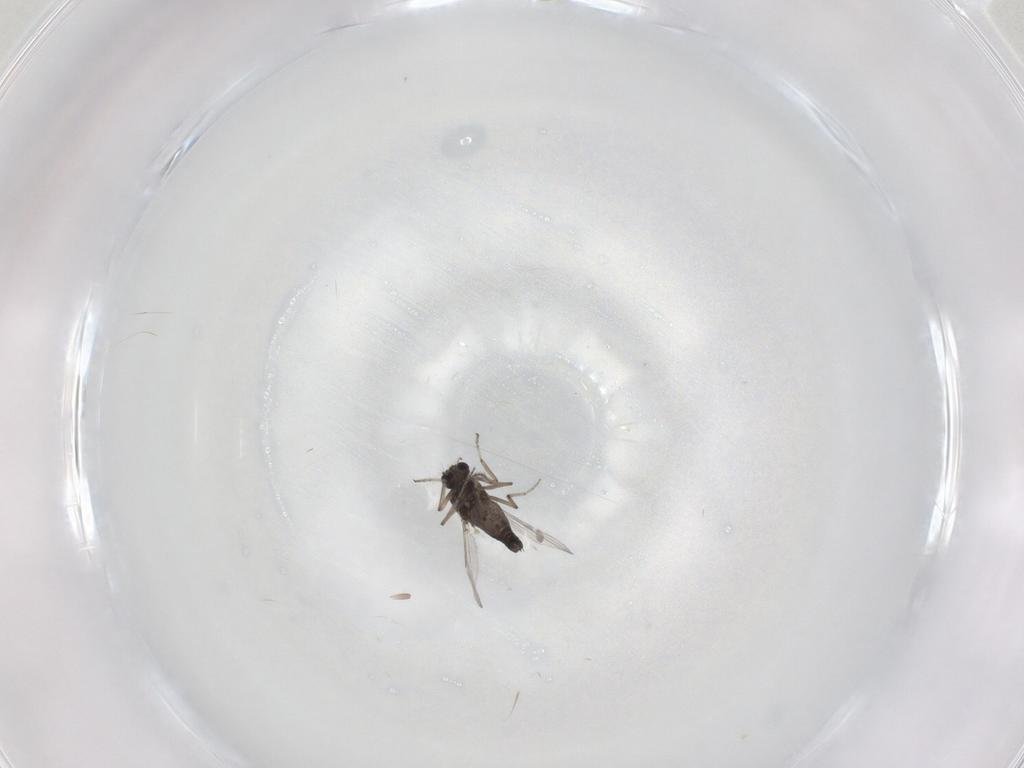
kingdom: Animalia
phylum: Arthropoda
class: Insecta
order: Diptera
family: Ceratopogonidae
